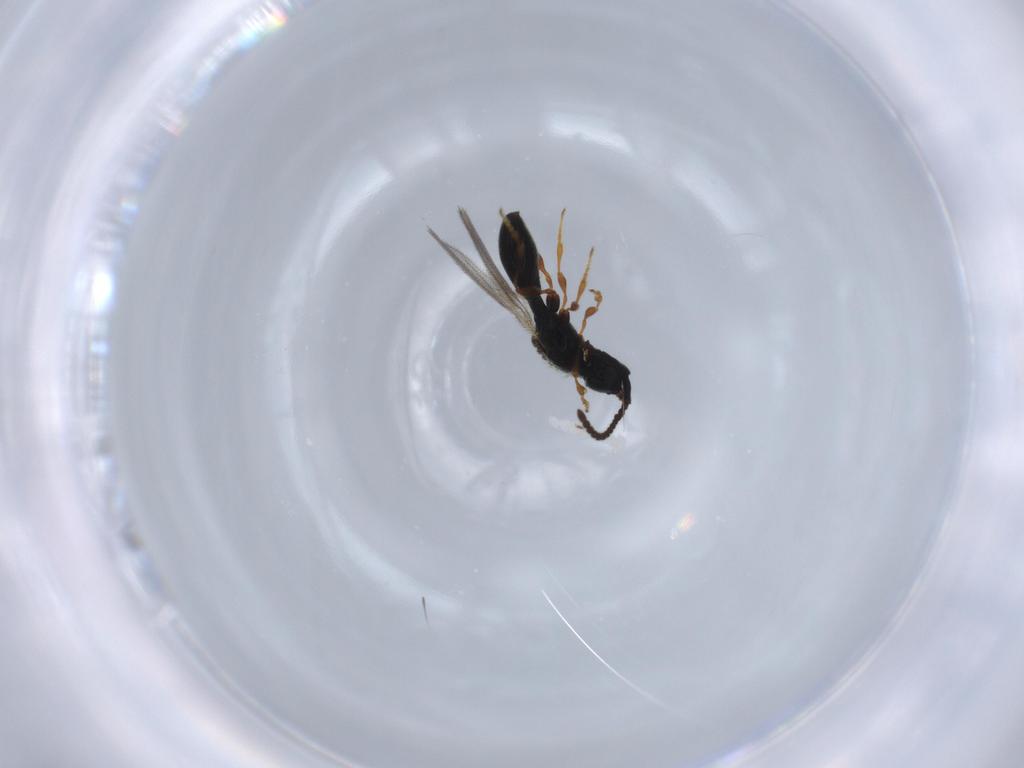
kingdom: Animalia
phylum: Arthropoda
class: Insecta
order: Hymenoptera
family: Diapriidae
